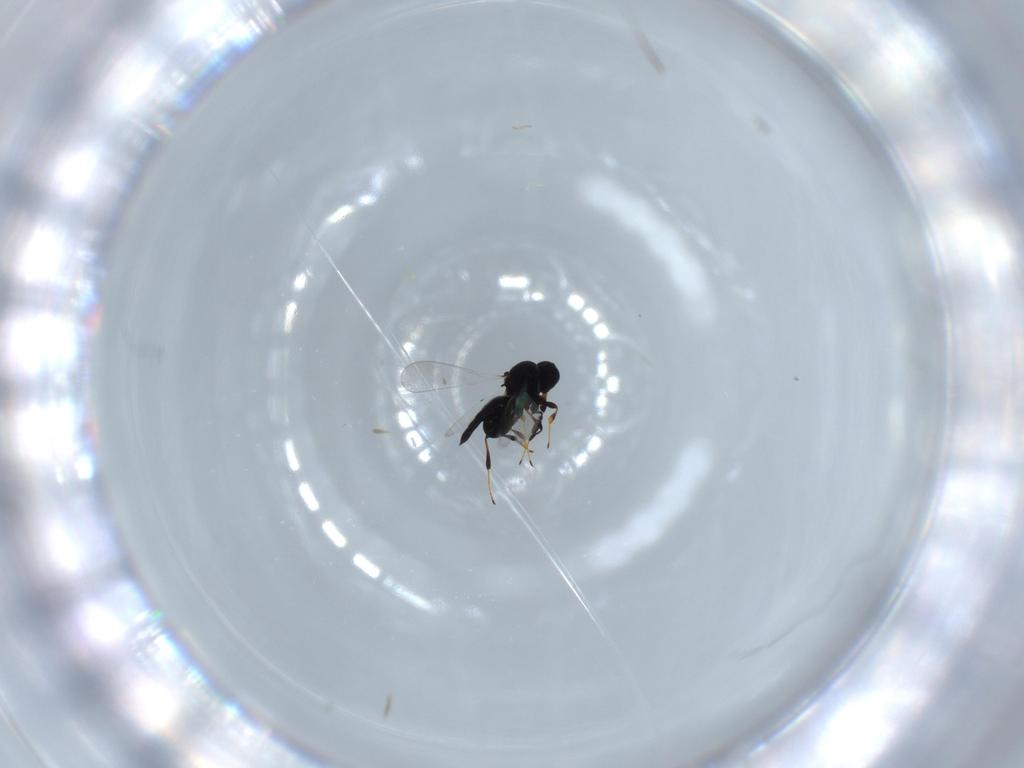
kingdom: Animalia
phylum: Arthropoda
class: Insecta
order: Hymenoptera
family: Platygastridae
